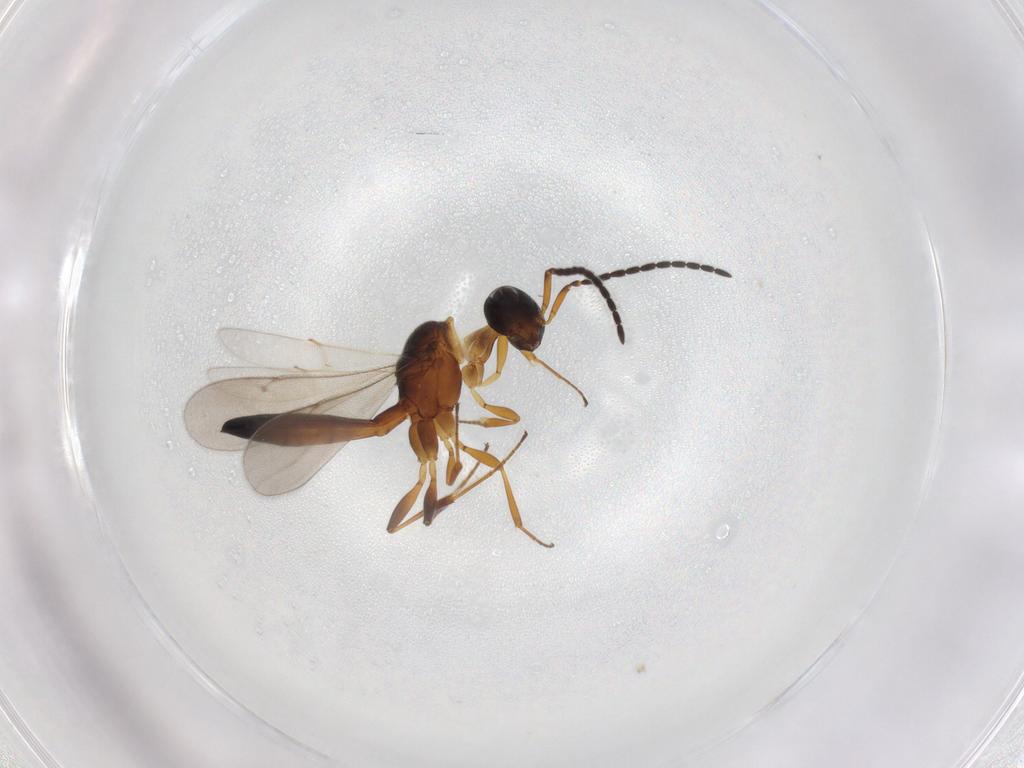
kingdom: Animalia
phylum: Arthropoda
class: Insecta
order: Hymenoptera
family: Scelionidae
